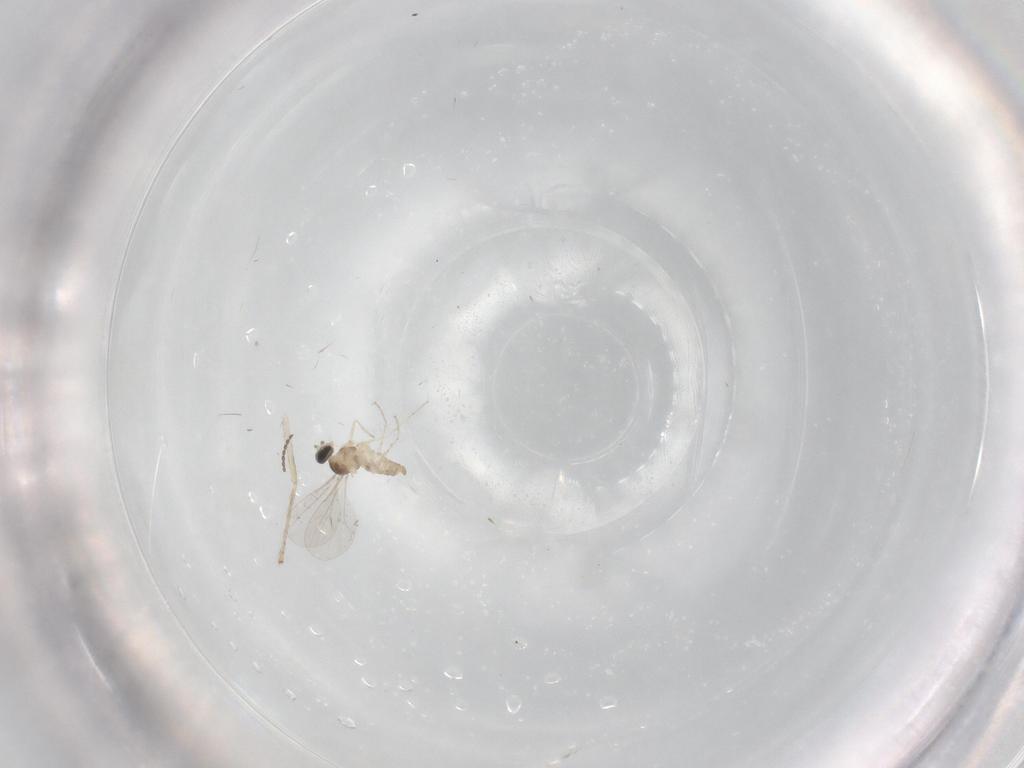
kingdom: Animalia
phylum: Arthropoda
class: Insecta
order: Diptera
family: Cecidomyiidae
